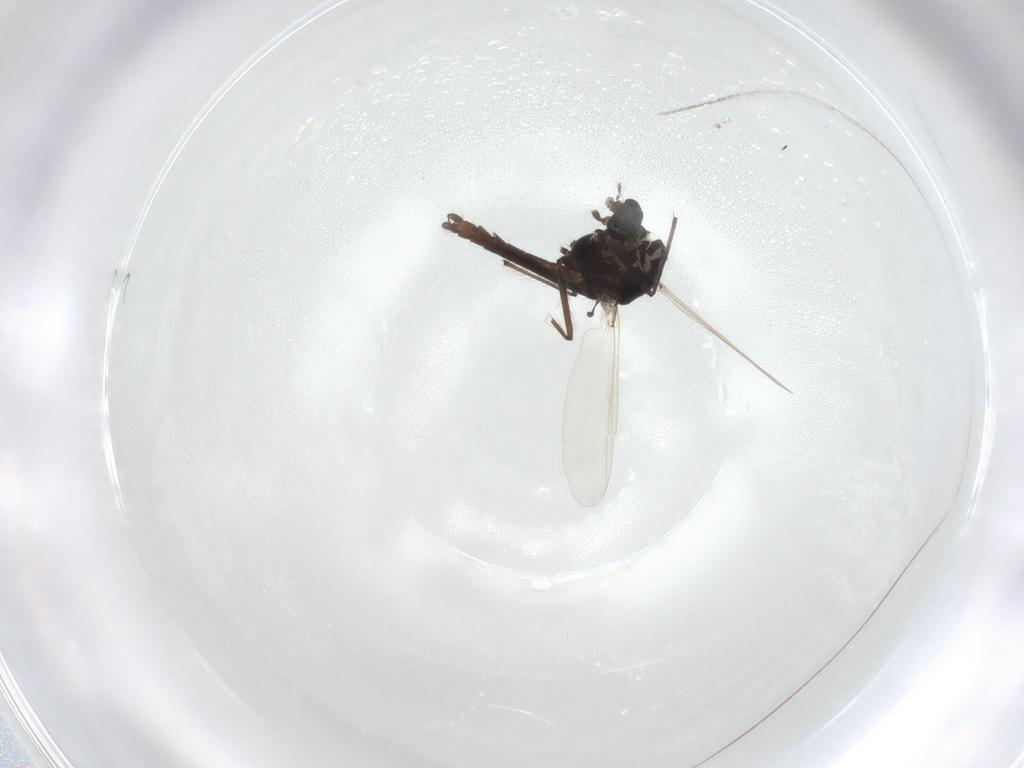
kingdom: Animalia
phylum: Arthropoda
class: Insecta
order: Diptera
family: Chironomidae
